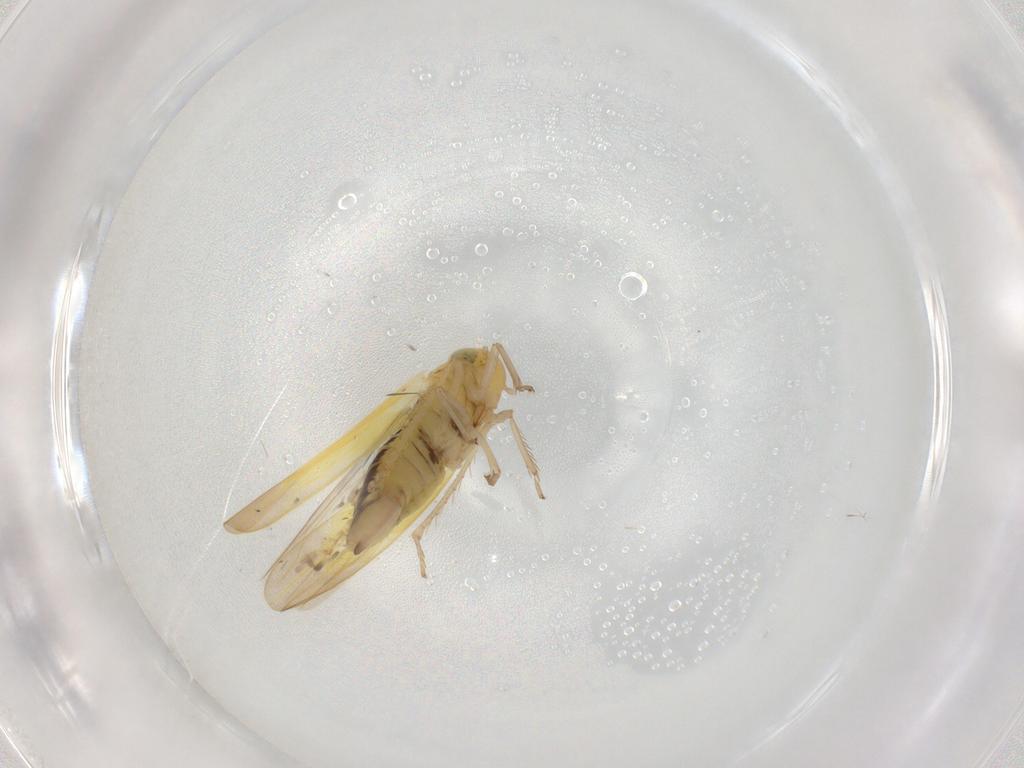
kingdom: Animalia
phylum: Arthropoda
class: Insecta
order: Hemiptera
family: Cicadellidae
